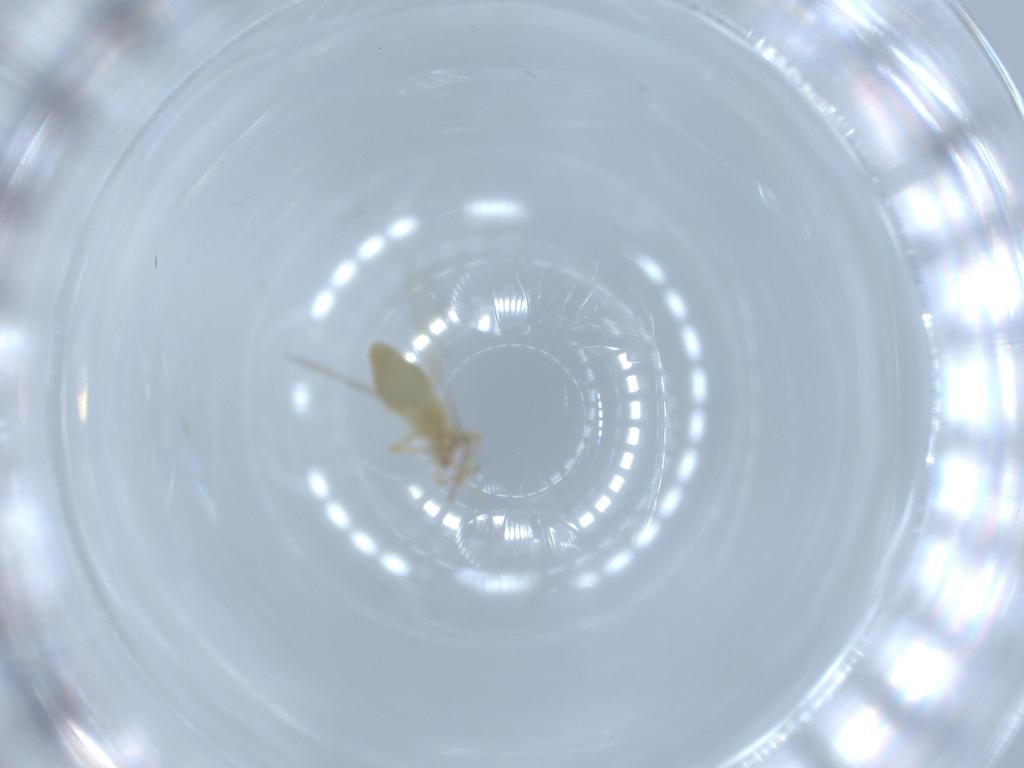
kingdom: Animalia
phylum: Arthropoda
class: Insecta
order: Diptera
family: Chironomidae
